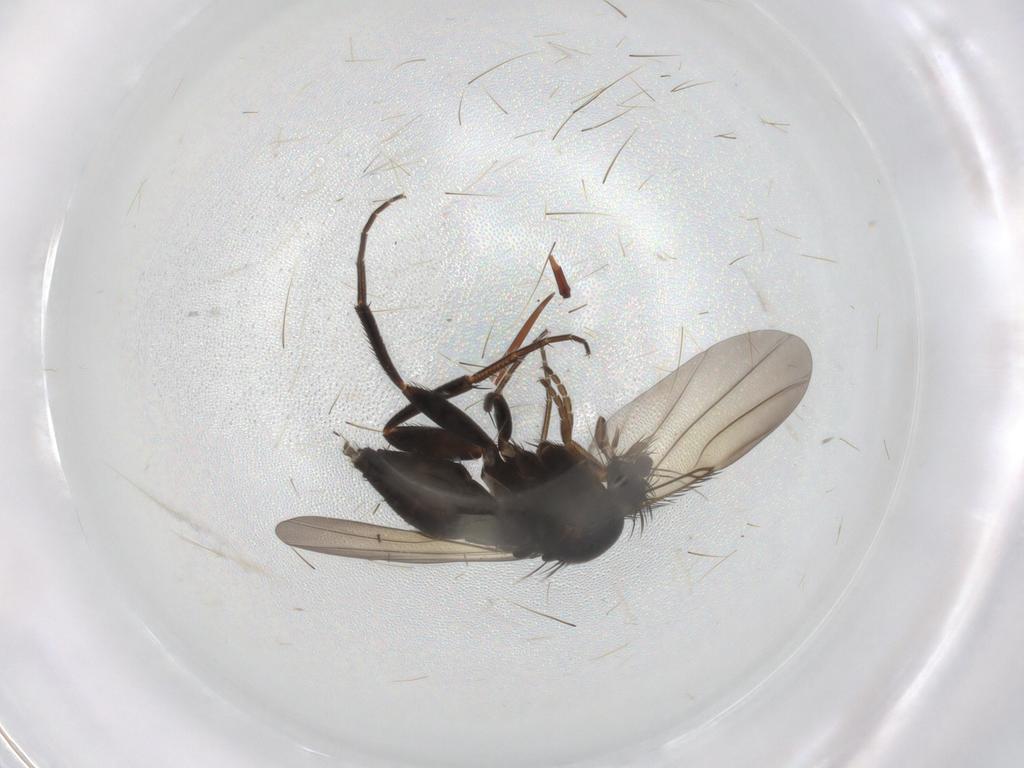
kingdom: Animalia
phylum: Arthropoda
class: Insecta
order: Diptera
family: Phoridae
